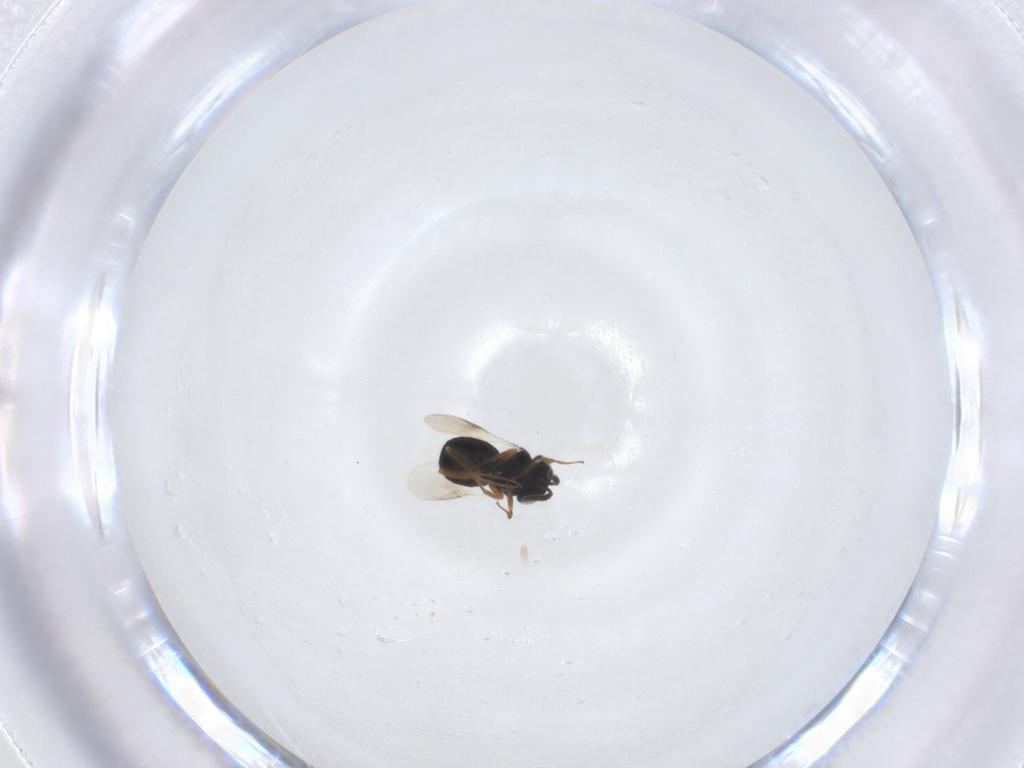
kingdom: Animalia
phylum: Arthropoda
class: Insecta
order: Hymenoptera
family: Scelionidae
